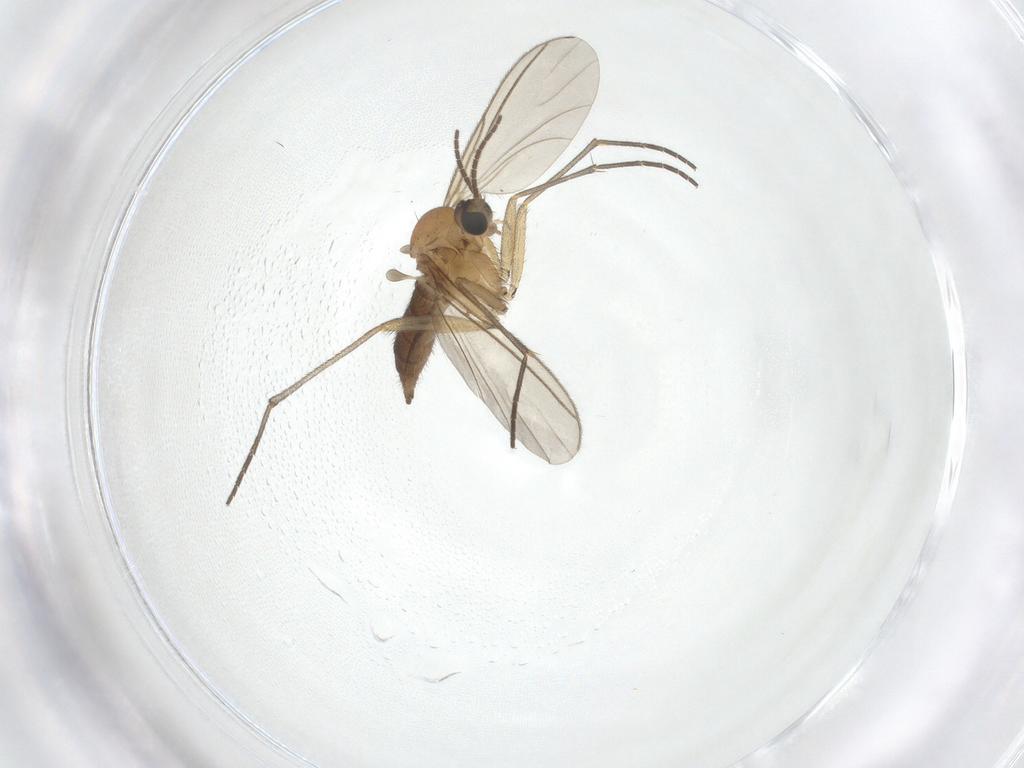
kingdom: Animalia
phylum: Arthropoda
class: Insecta
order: Diptera
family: Sciaridae
